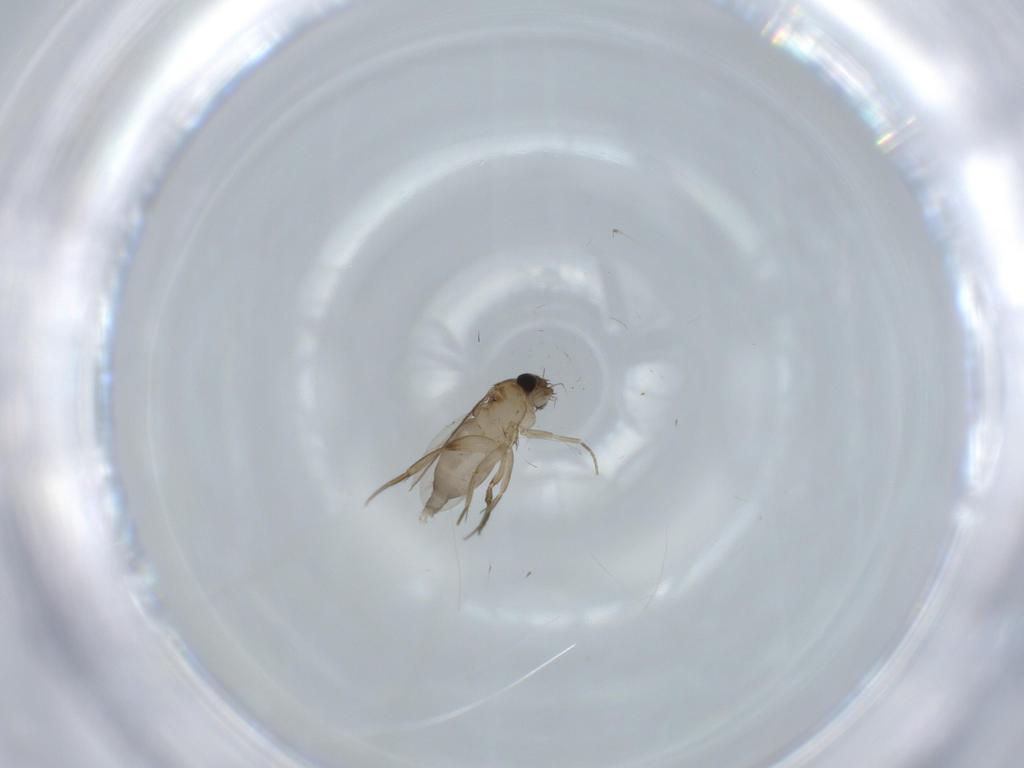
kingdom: Animalia
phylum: Arthropoda
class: Insecta
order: Diptera
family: Phoridae
